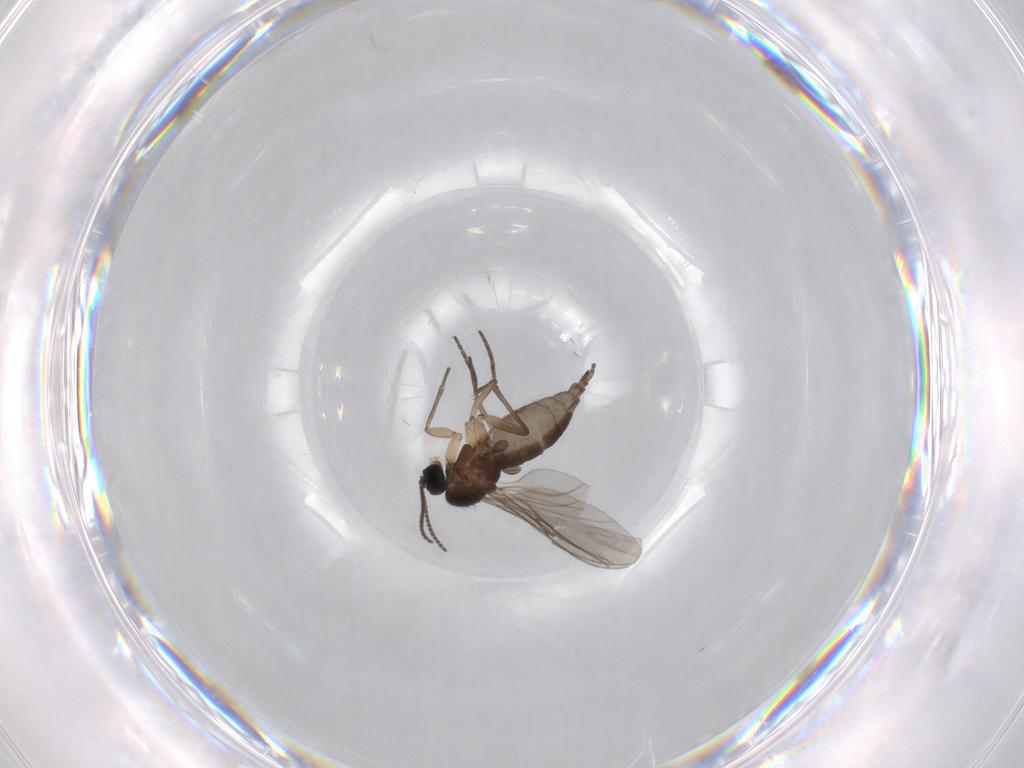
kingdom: Animalia
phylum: Arthropoda
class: Insecta
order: Diptera
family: Sciaridae
